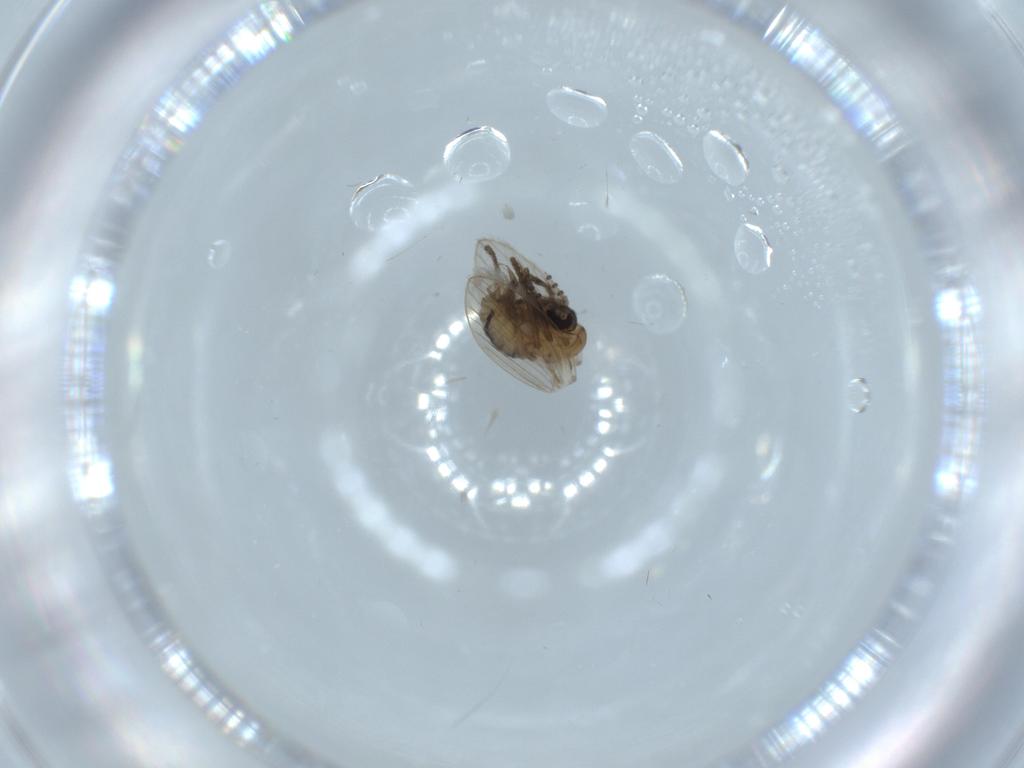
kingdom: Animalia
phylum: Arthropoda
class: Insecta
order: Diptera
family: Psychodidae
